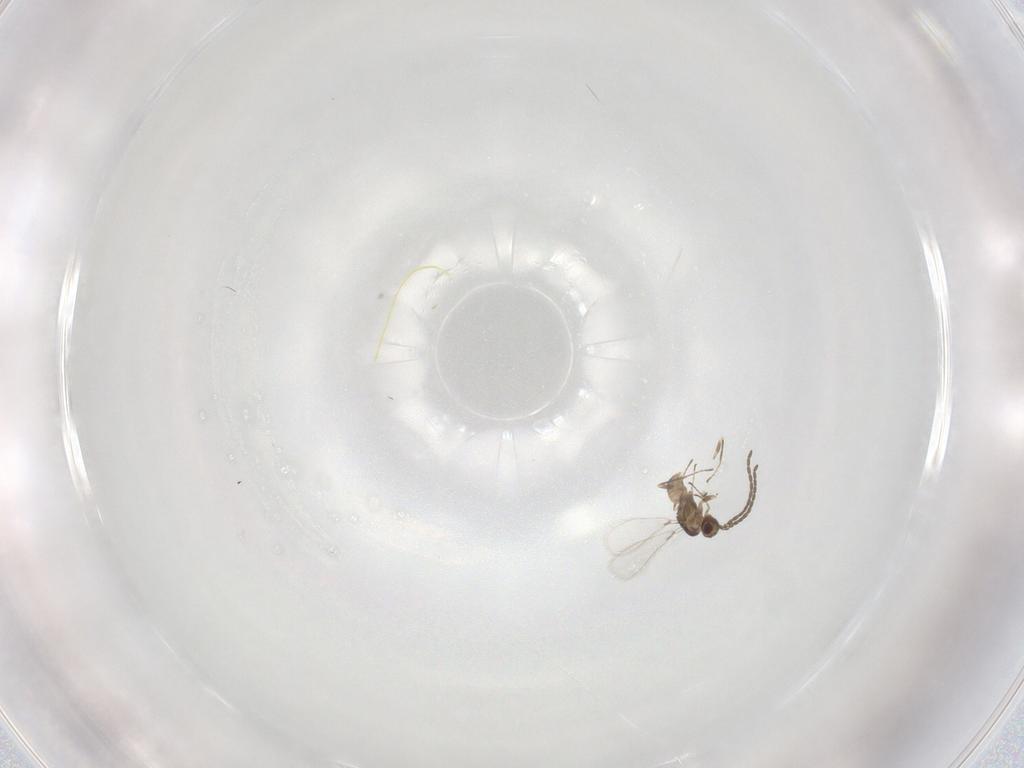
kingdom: Animalia
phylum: Arthropoda
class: Insecta
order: Hymenoptera
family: Mymaridae
